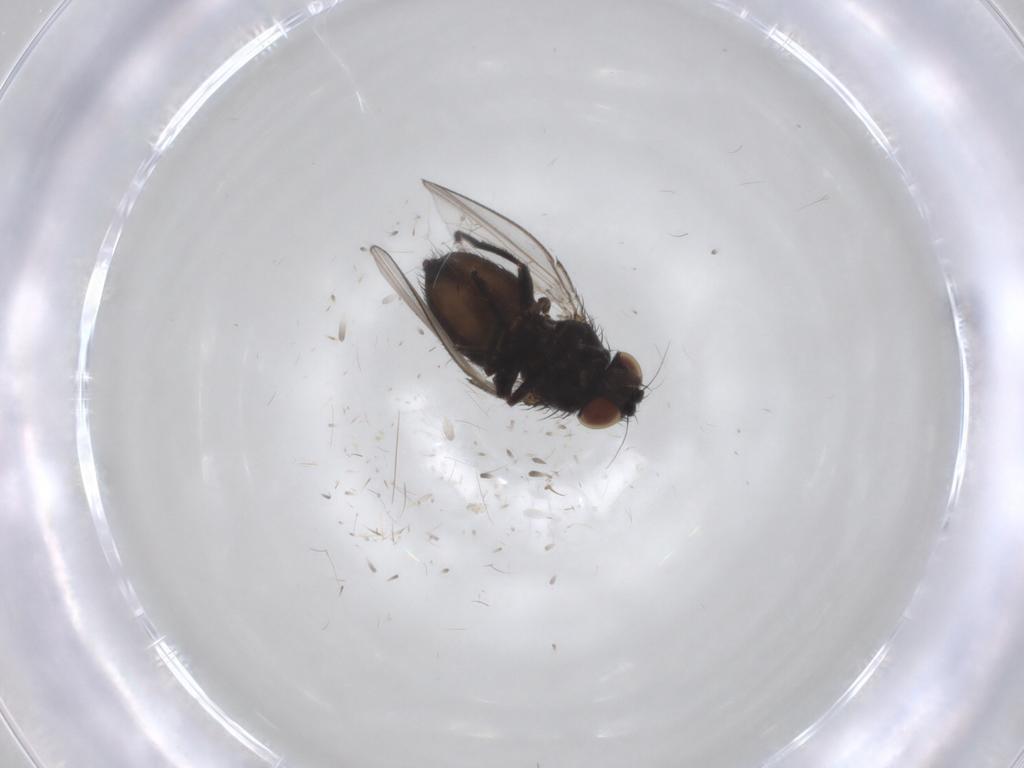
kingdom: Animalia
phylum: Arthropoda
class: Insecta
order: Diptera
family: Milichiidae
